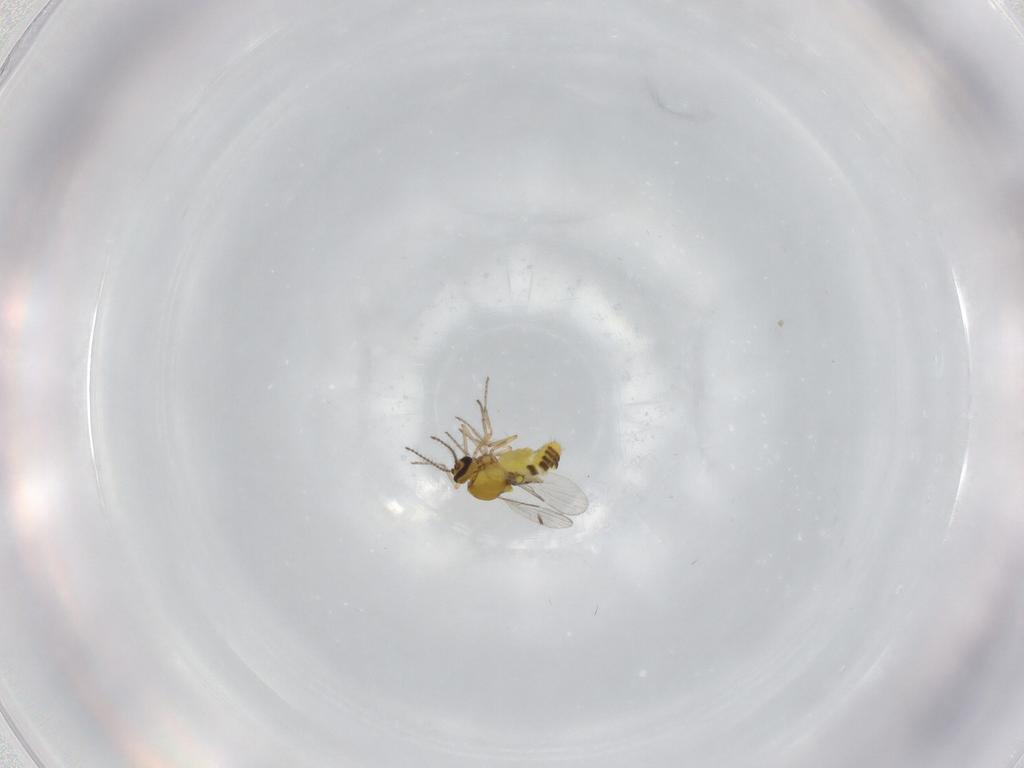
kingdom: Animalia
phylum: Arthropoda
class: Insecta
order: Diptera
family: Ceratopogonidae
